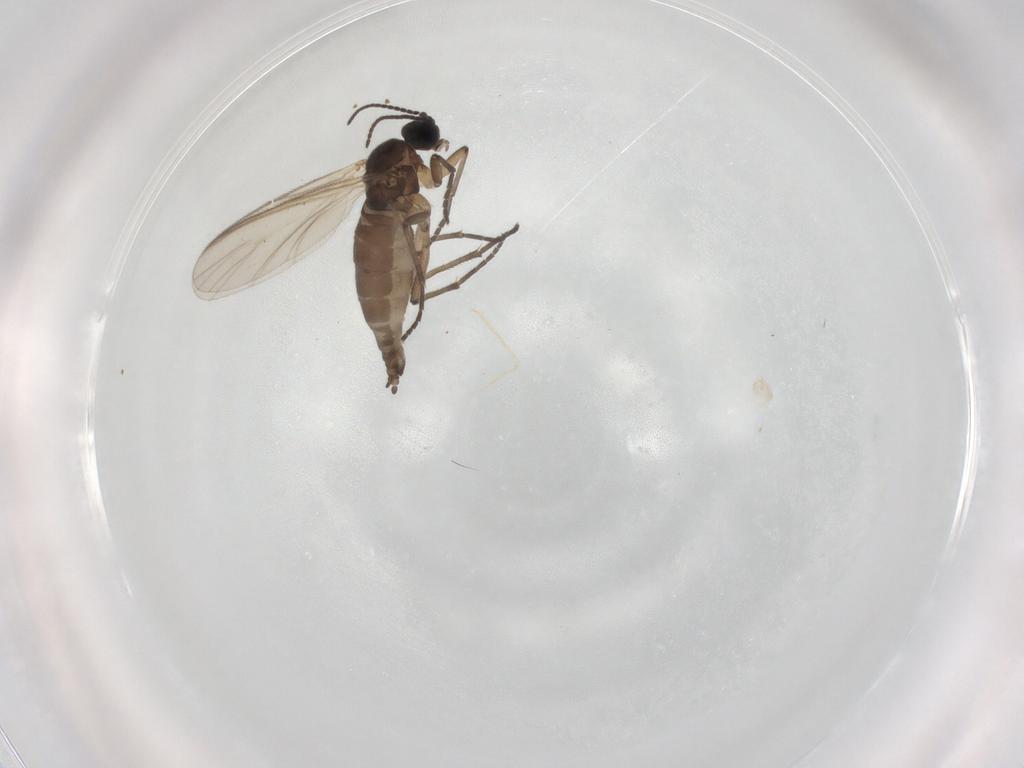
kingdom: Animalia
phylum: Arthropoda
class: Insecta
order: Diptera
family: Sciaridae
